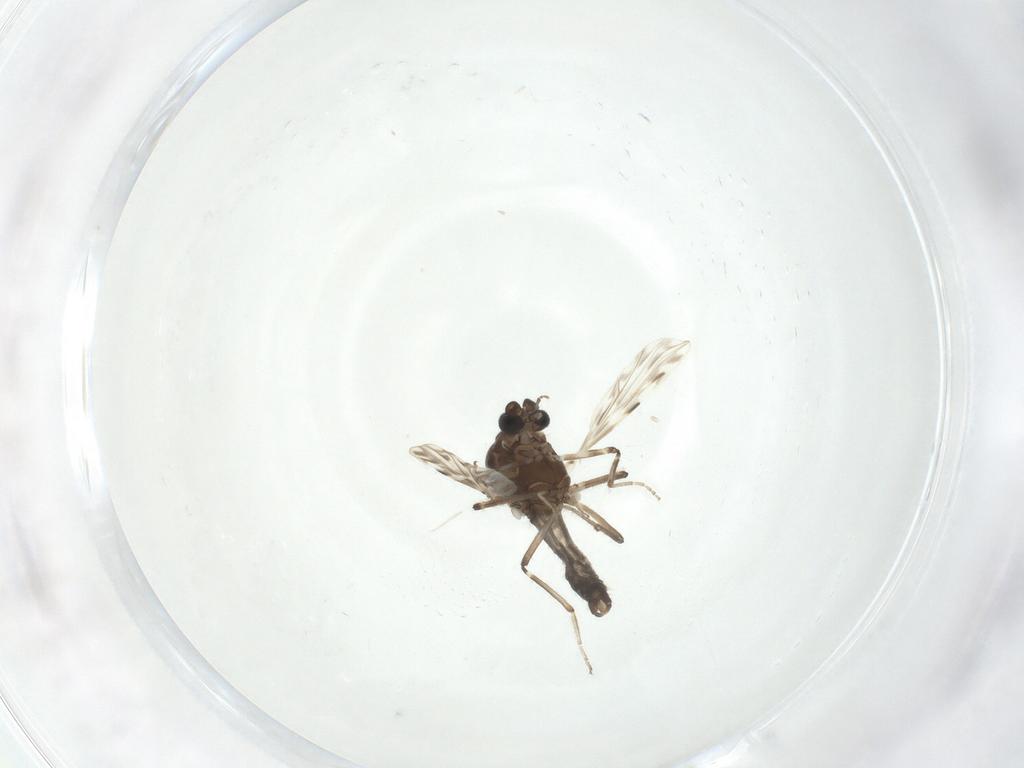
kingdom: Animalia
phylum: Arthropoda
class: Insecta
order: Diptera
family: Ceratopogonidae
